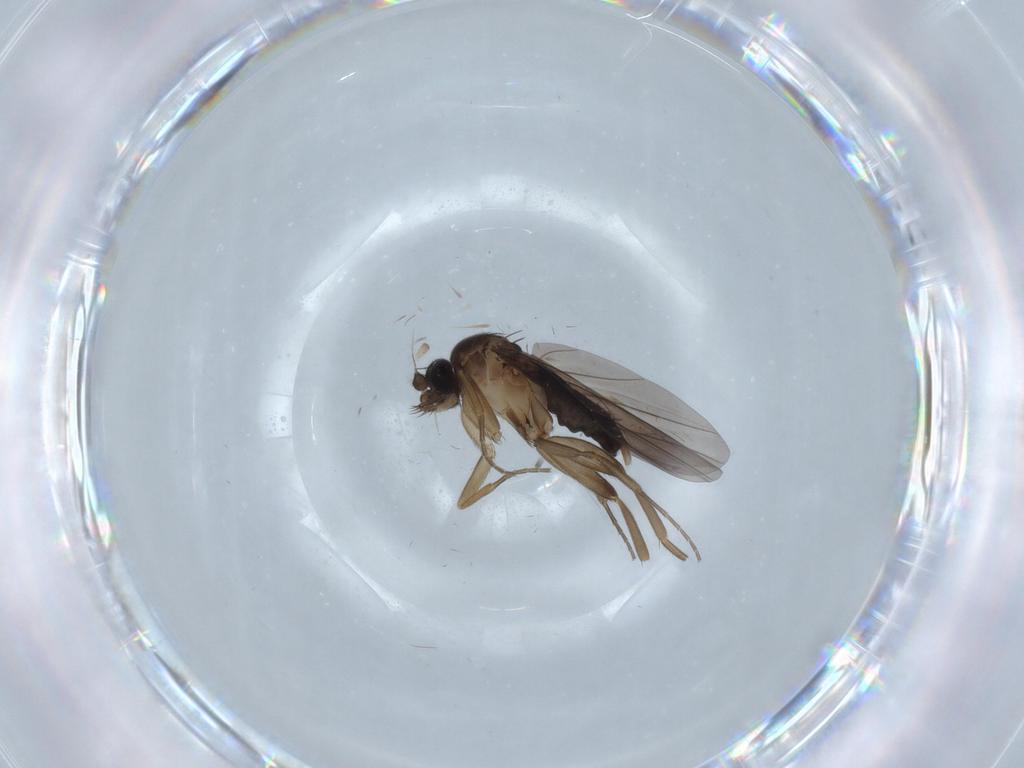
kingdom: Animalia
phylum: Arthropoda
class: Insecta
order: Diptera
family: Phoridae
